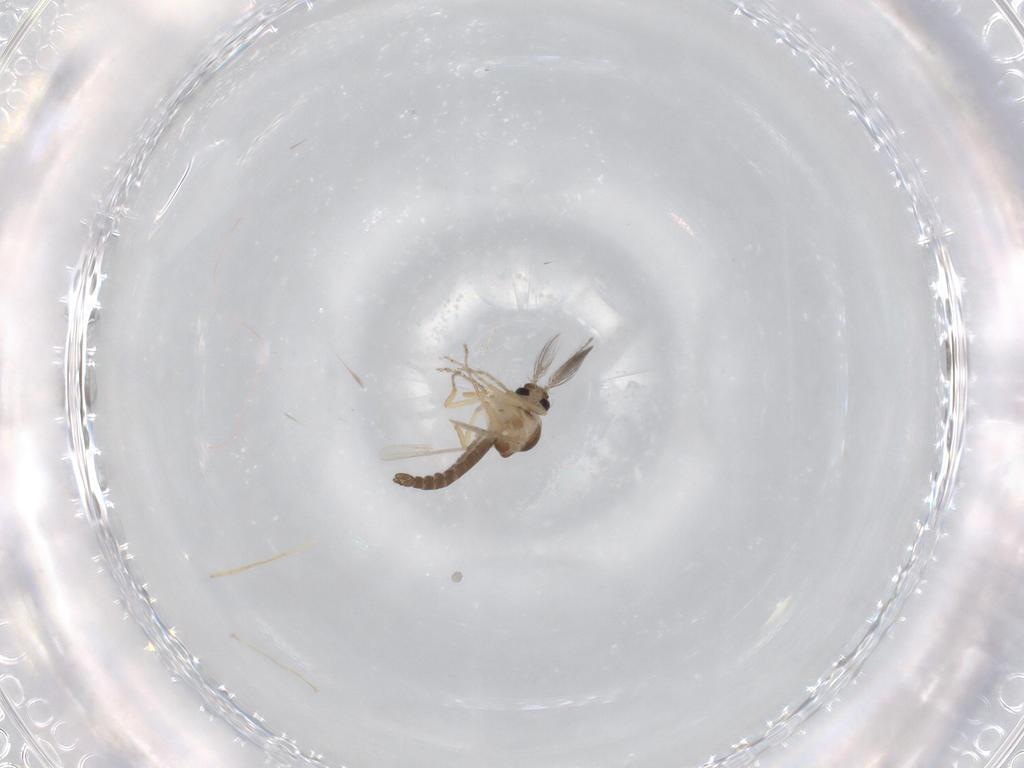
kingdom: Animalia
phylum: Arthropoda
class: Insecta
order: Diptera
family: Ceratopogonidae
